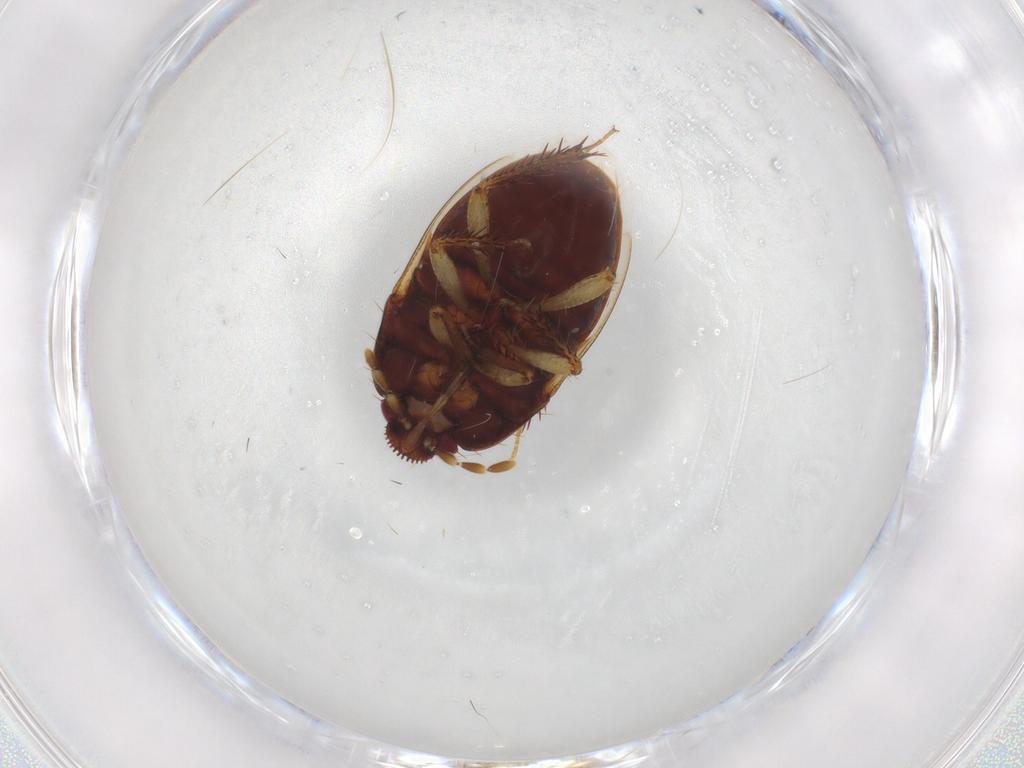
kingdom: Animalia
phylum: Arthropoda
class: Insecta
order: Hemiptera
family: Cydnidae
